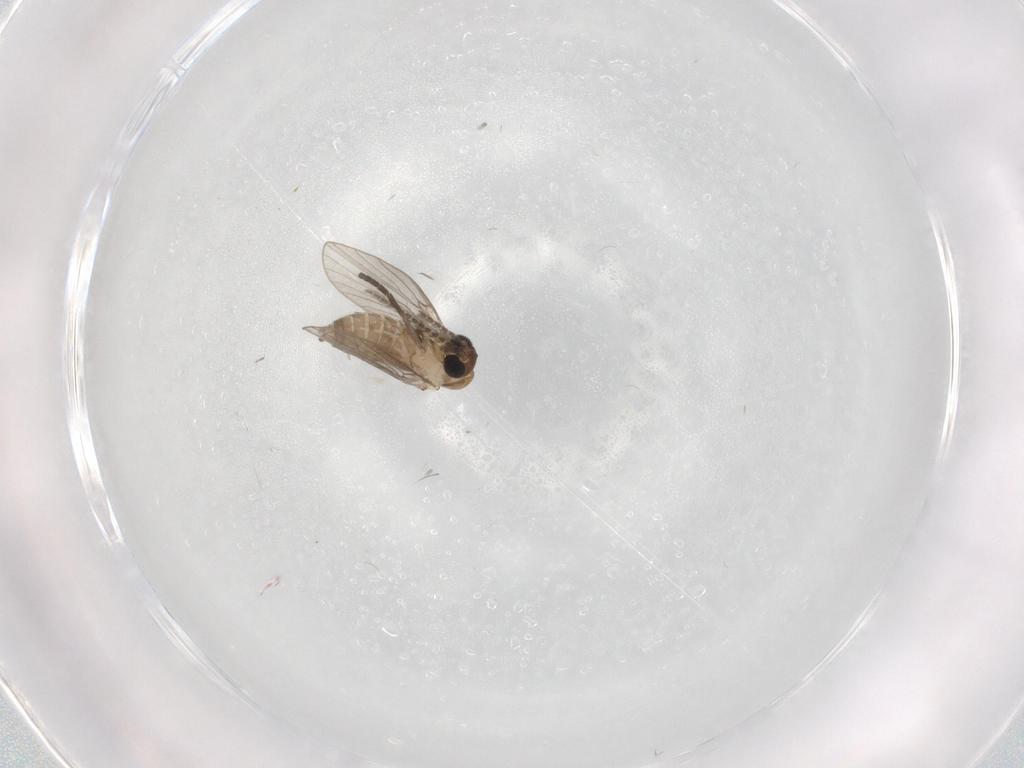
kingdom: Animalia
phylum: Arthropoda
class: Insecta
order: Diptera
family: Psychodidae
